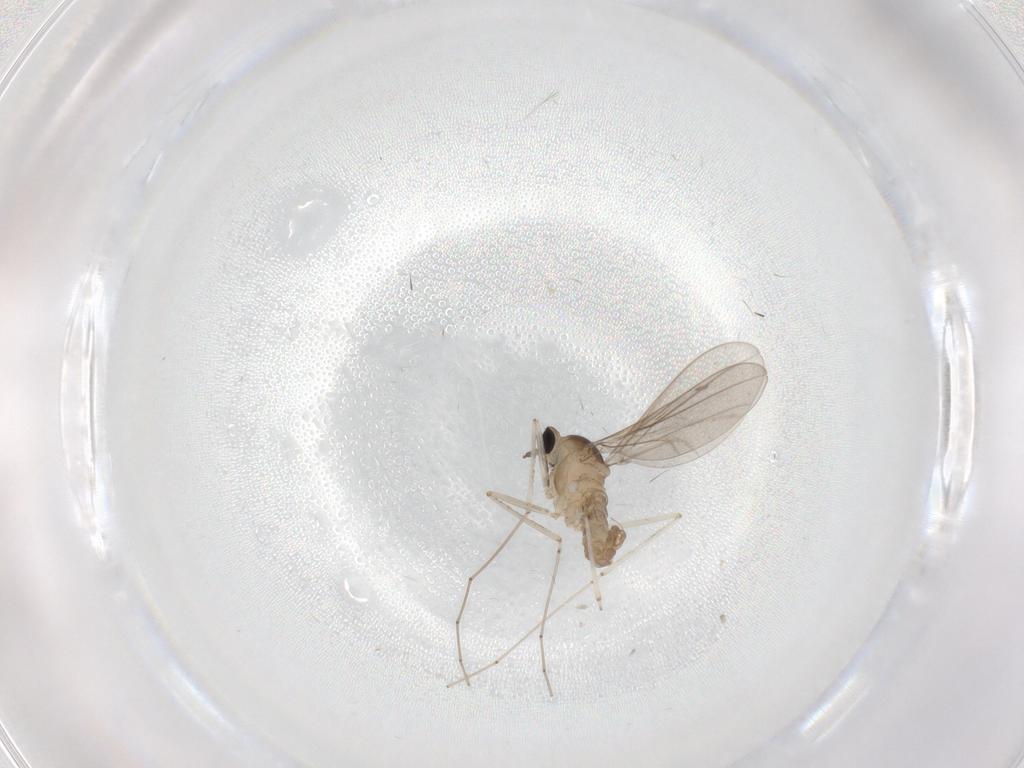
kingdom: Animalia
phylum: Arthropoda
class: Insecta
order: Diptera
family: Cecidomyiidae
